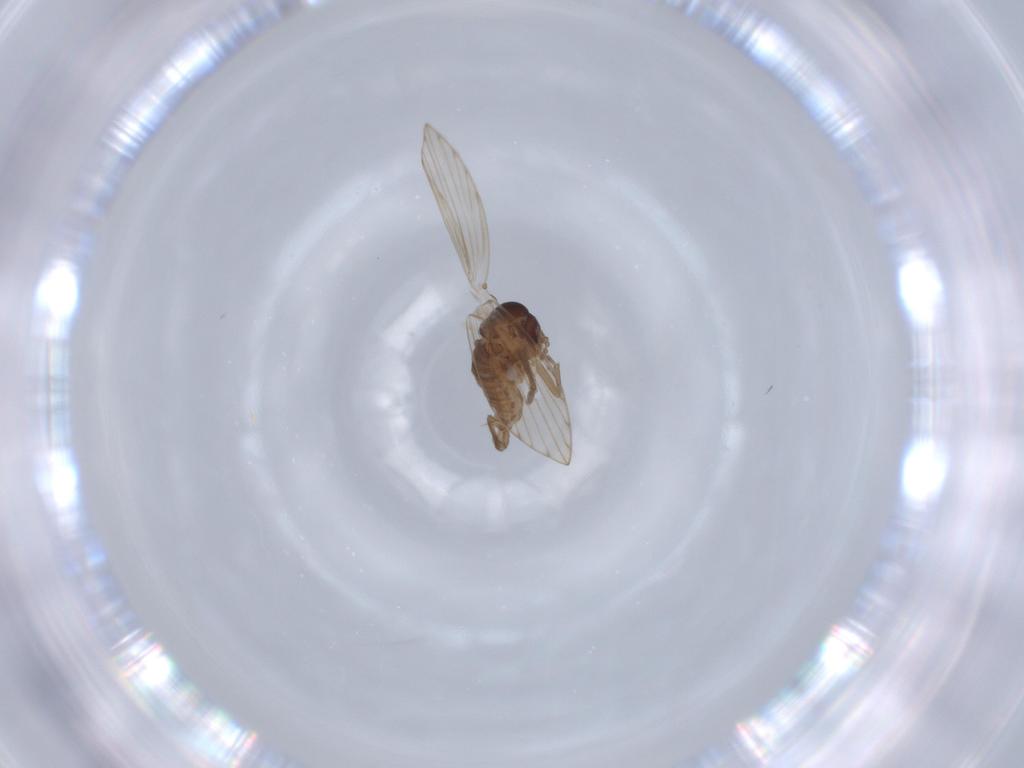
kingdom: Animalia
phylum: Arthropoda
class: Insecta
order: Diptera
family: Psychodidae
